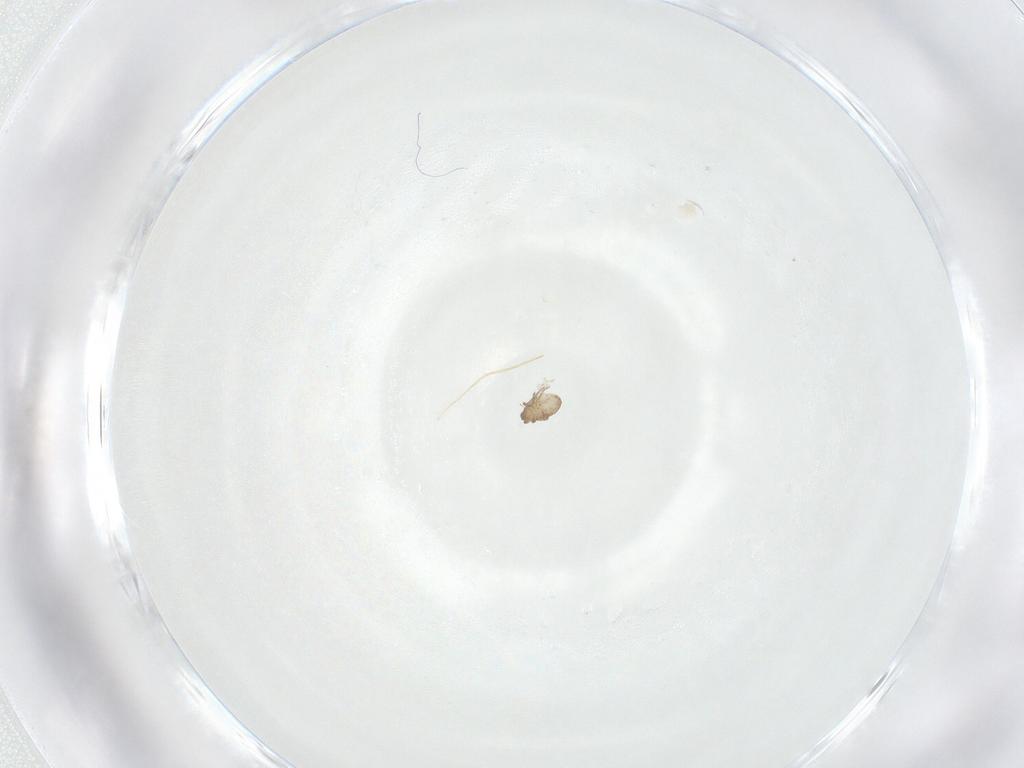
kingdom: Animalia
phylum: Arthropoda
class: Arachnida
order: Sarcoptiformes
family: Tectocepheidae
